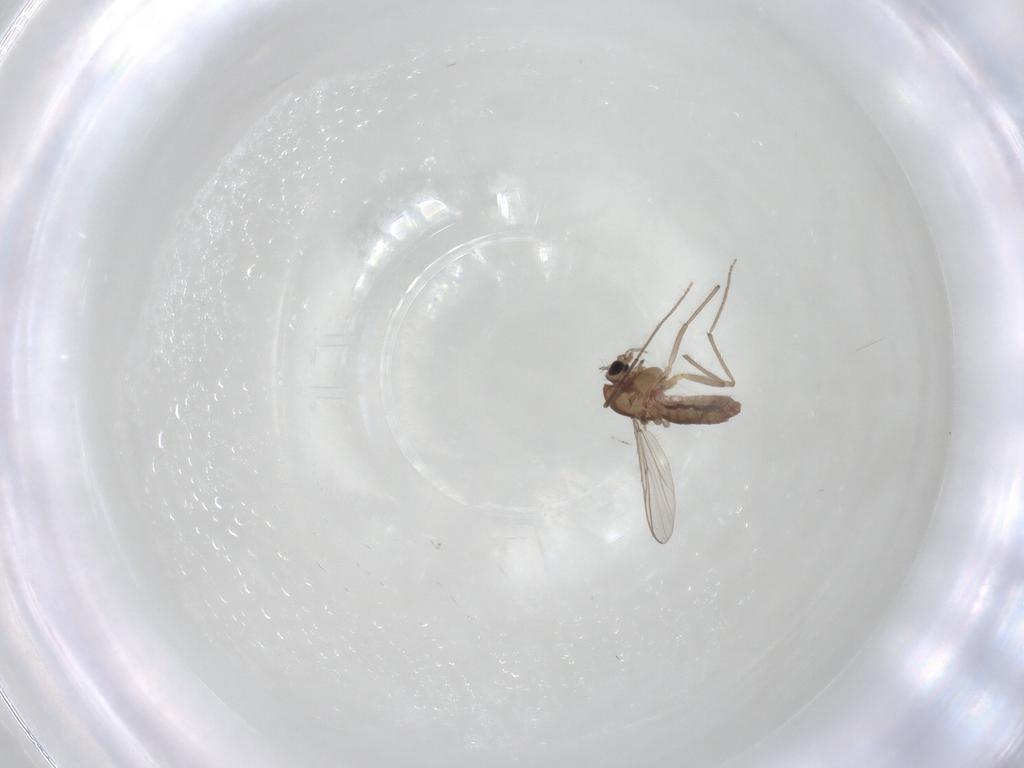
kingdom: Animalia
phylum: Arthropoda
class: Insecta
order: Diptera
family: Chironomidae
